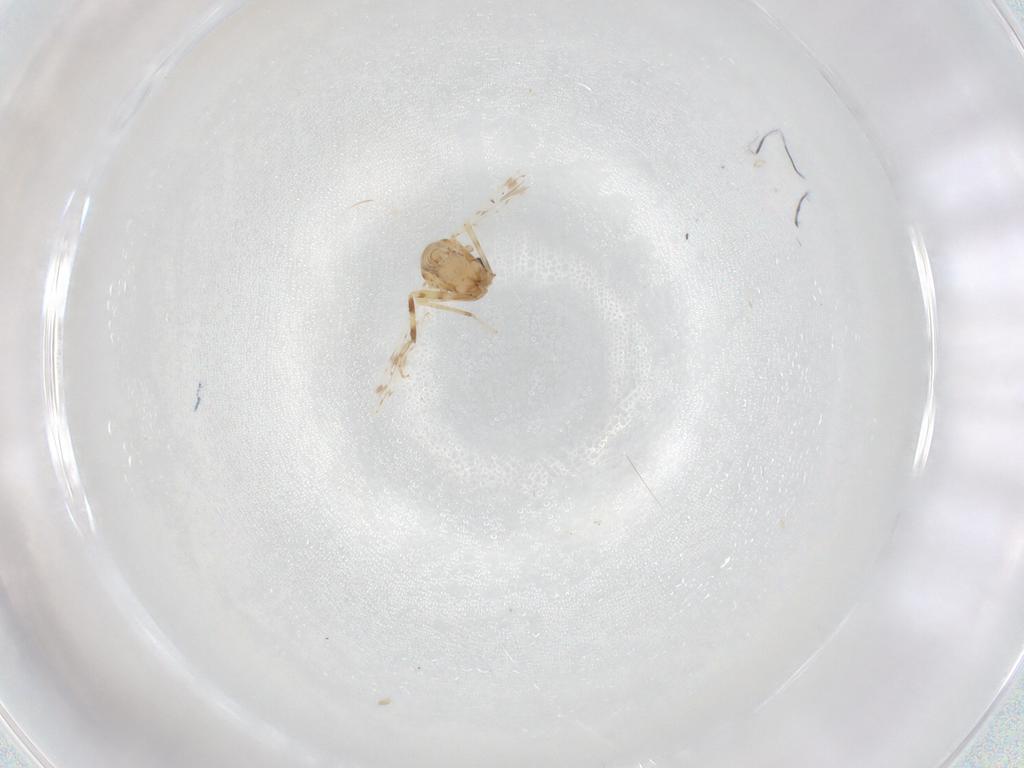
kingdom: Animalia
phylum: Arthropoda
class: Insecta
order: Diptera
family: Ceratopogonidae
